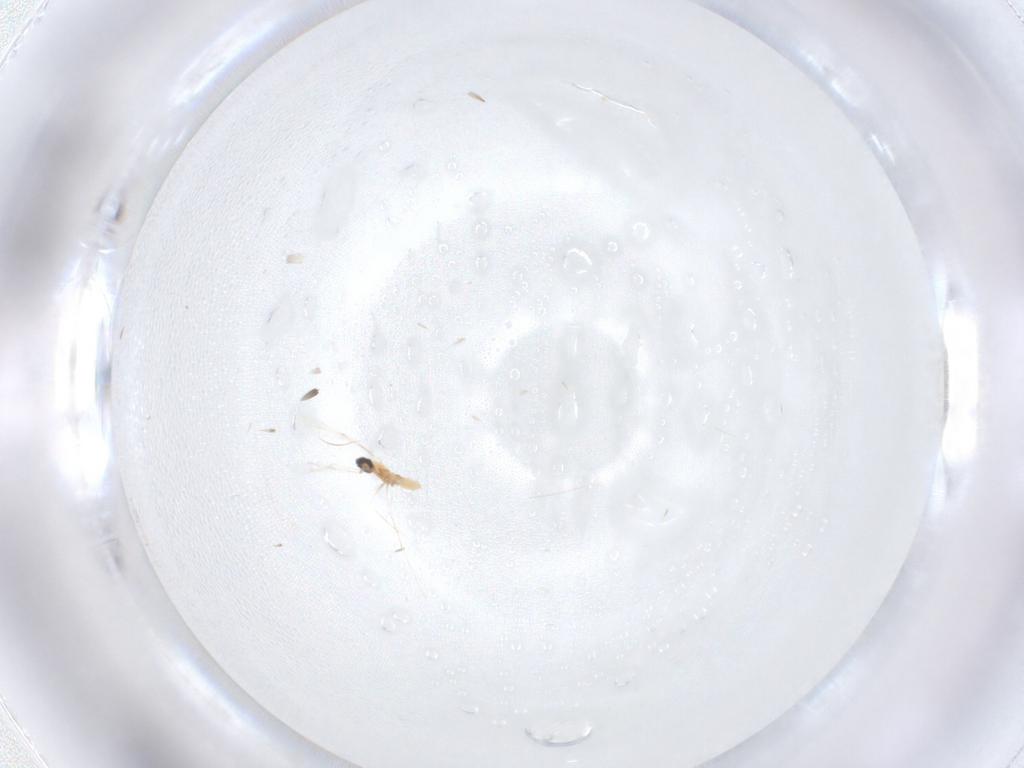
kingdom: Animalia
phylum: Arthropoda
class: Insecta
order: Diptera
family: Cecidomyiidae
